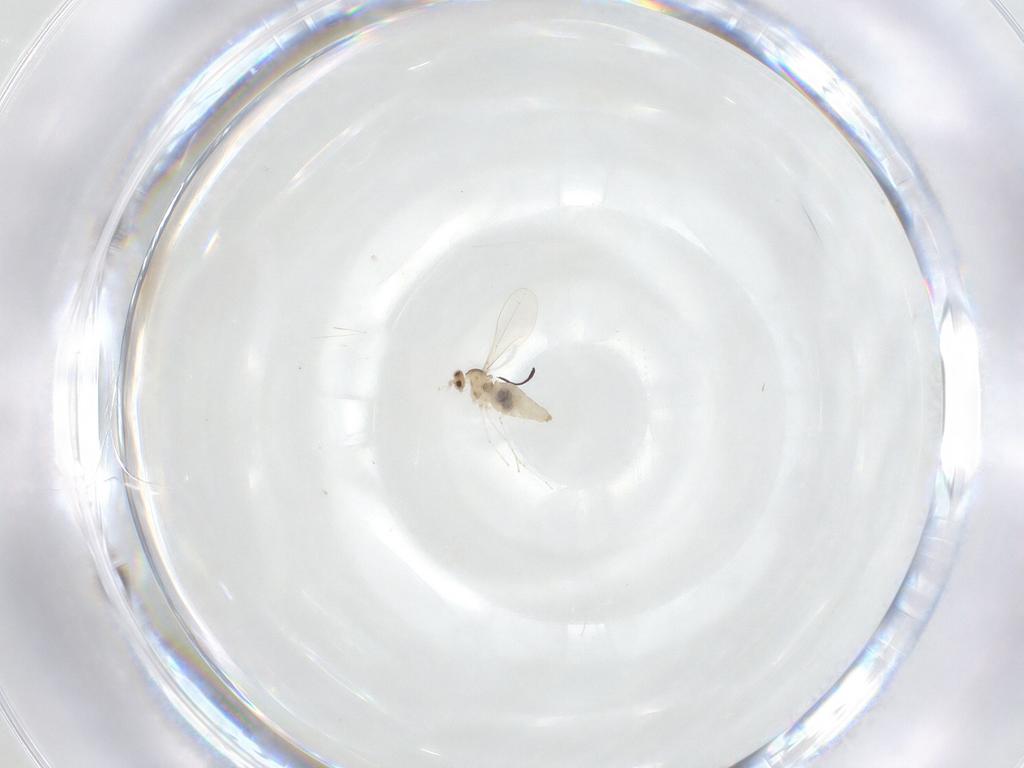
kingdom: Animalia
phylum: Arthropoda
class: Insecta
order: Diptera
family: Cecidomyiidae
